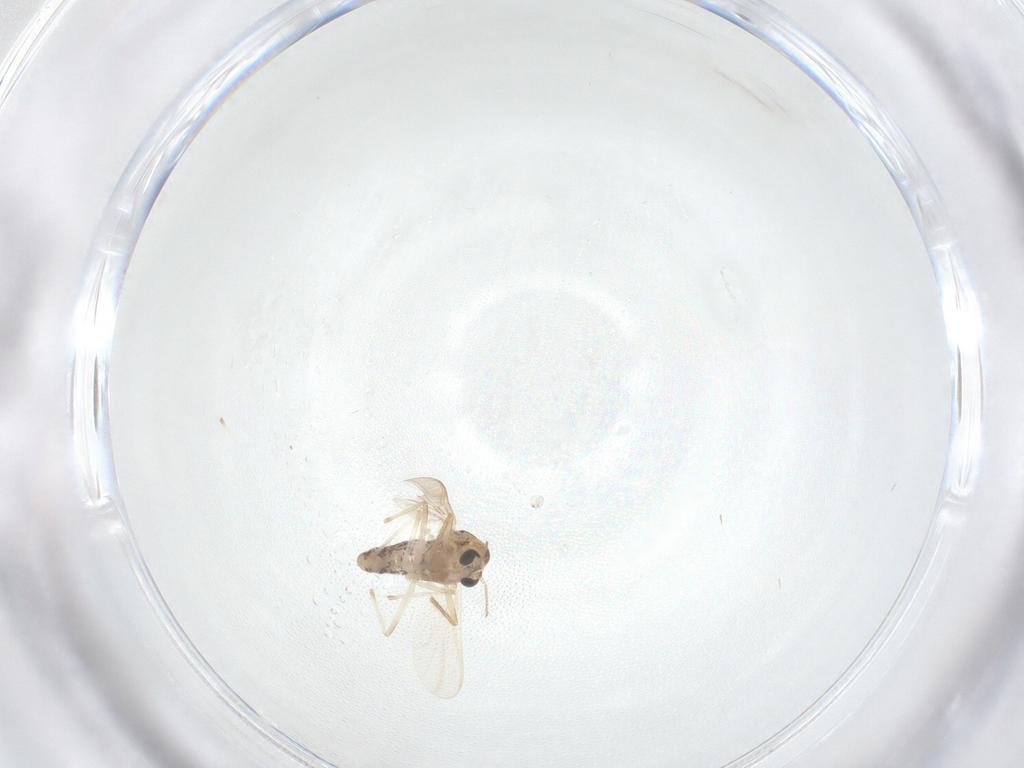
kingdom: Animalia
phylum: Arthropoda
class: Insecta
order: Diptera
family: Chironomidae
